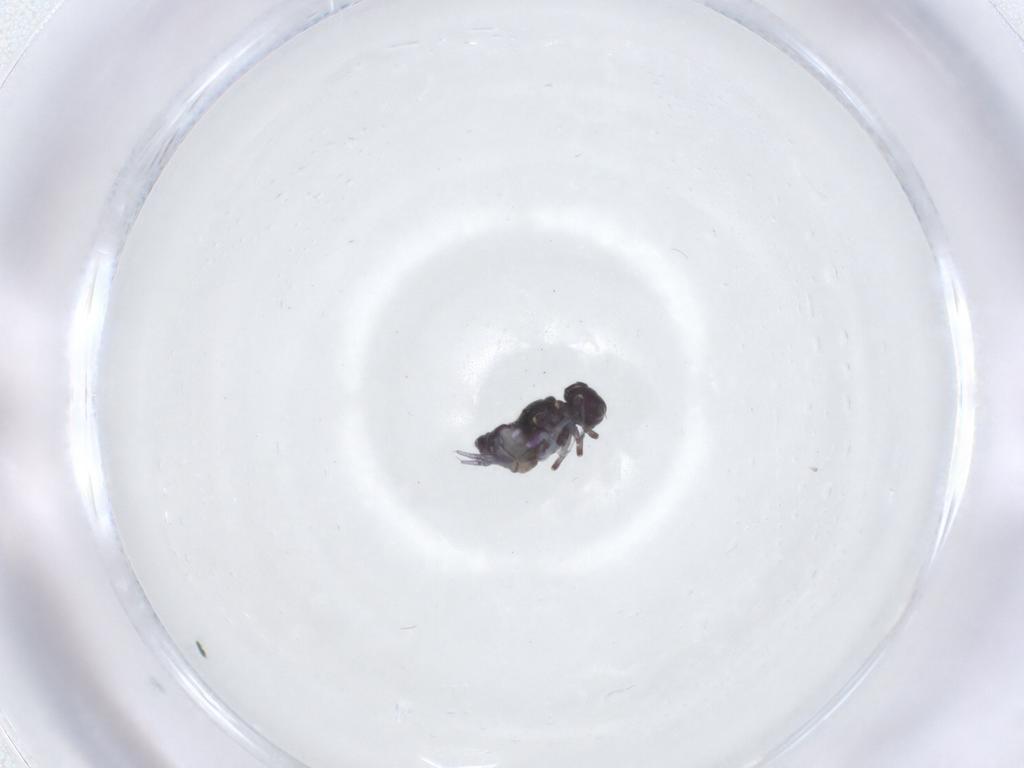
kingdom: Animalia
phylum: Arthropoda
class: Collembola
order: Symphypleona
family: Bourletiellidae
